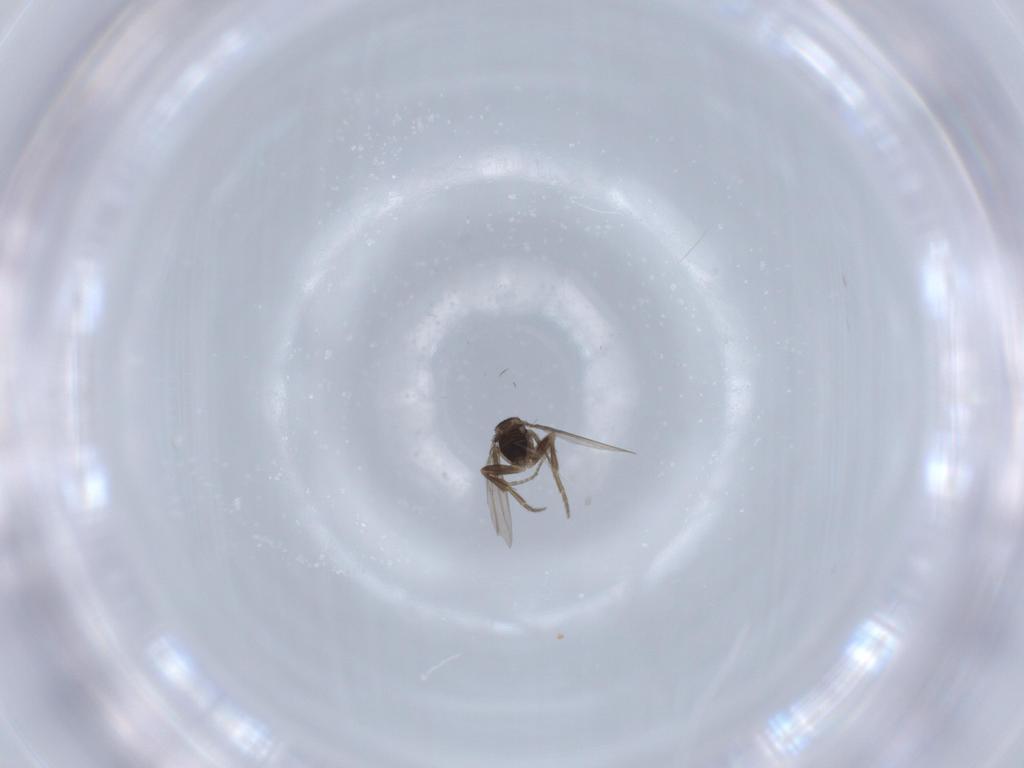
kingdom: Animalia
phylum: Arthropoda
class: Insecta
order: Diptera
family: Phoridae
